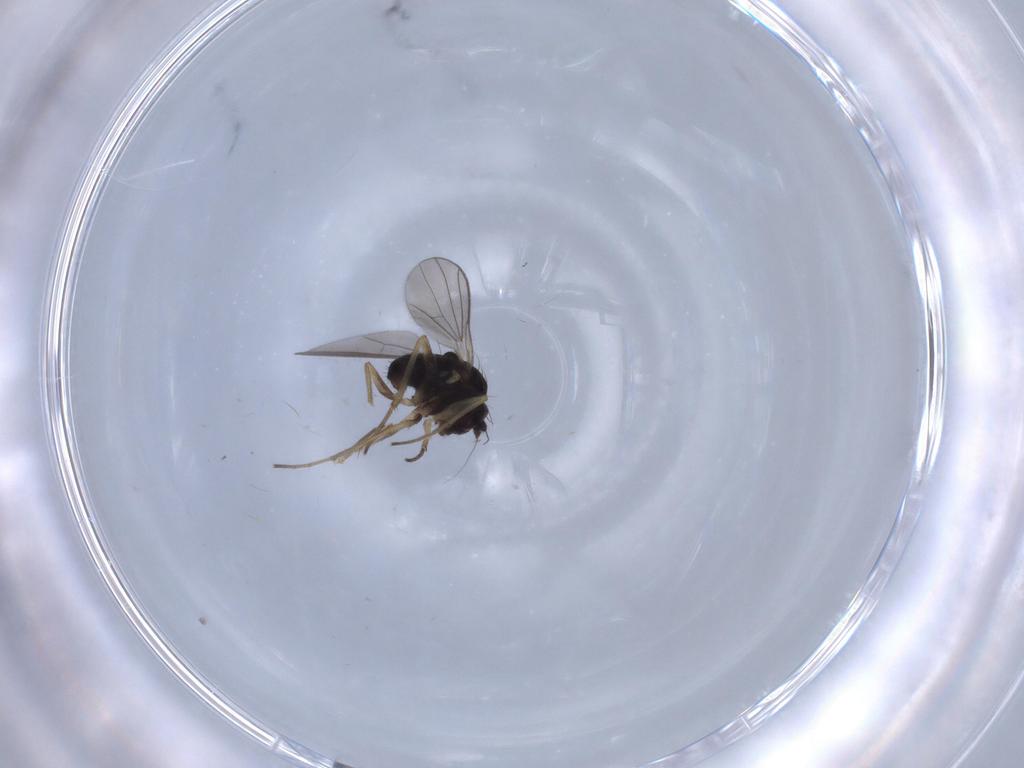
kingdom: Animalia
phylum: Arthropoda
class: Insecta
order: Diptera
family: Dolichopodidae
